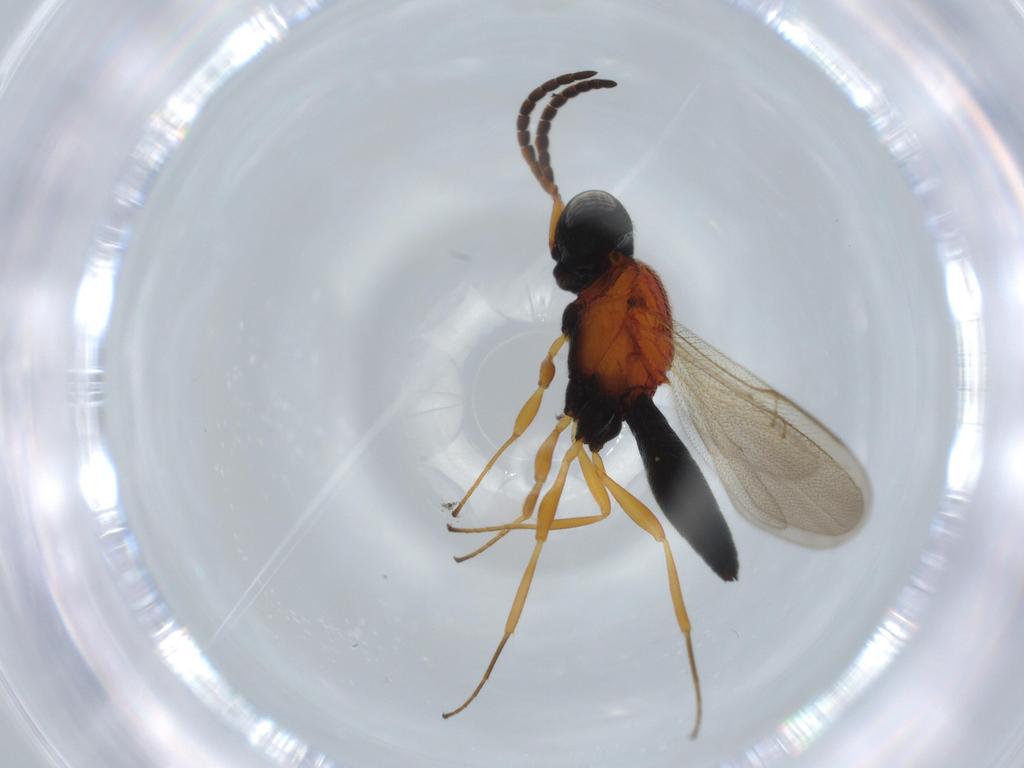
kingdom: Animalia
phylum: Arthropoda
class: Insecta
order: Hymenoptera
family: Scelionidae
